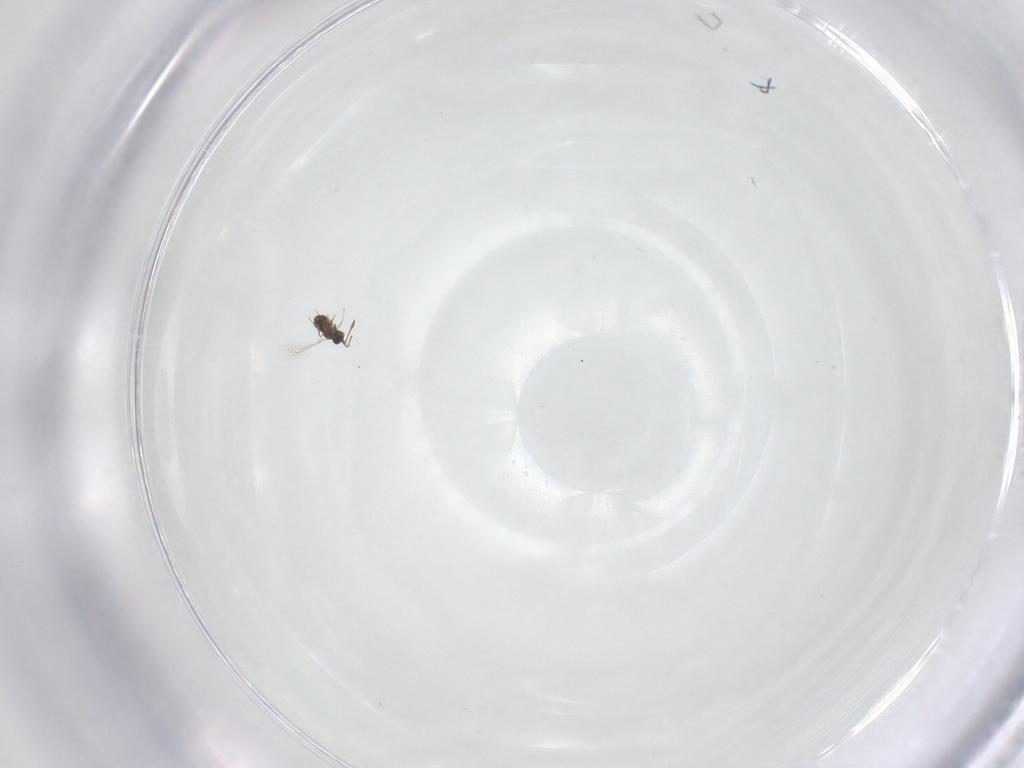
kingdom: Animalia
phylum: Arthropoda
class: Insecta
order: Hymenoptera
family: Mymaridae
